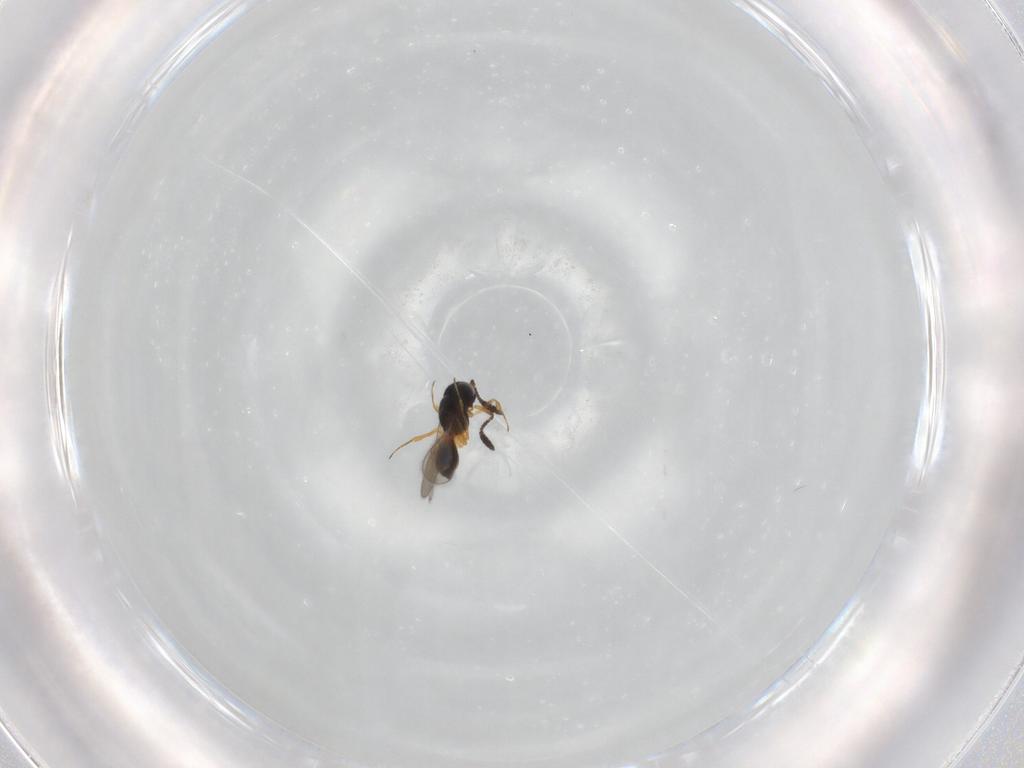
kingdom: Animalia
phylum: Arthropoda
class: Insecta
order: Hymenoptera
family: Scelionidae
